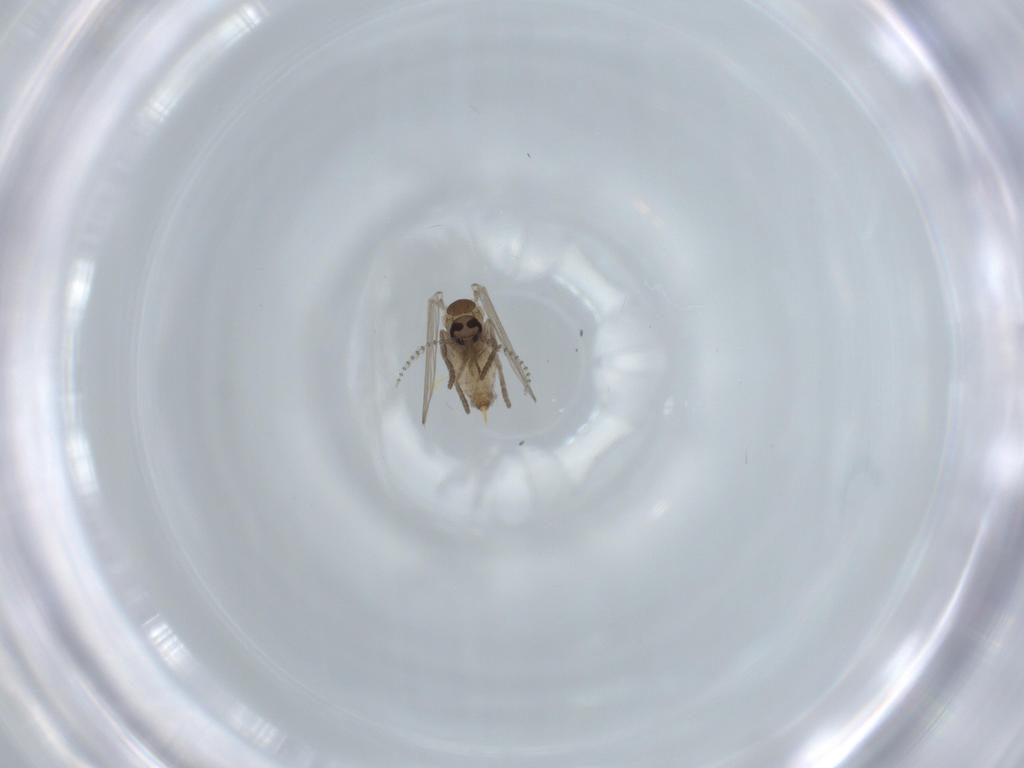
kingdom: Animalia
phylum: Arthropoda
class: Insecta
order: Diptera
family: Psychodidae
